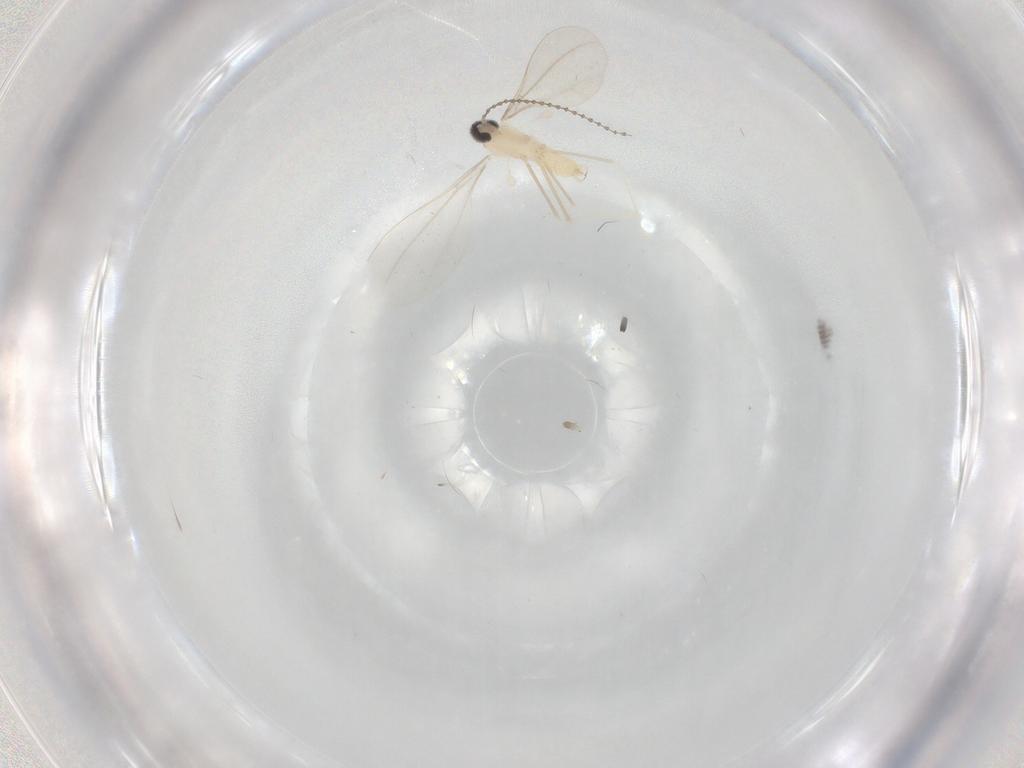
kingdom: Animalia
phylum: Arthropoda
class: Insecta
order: Diptera
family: Cecidomyiidae
